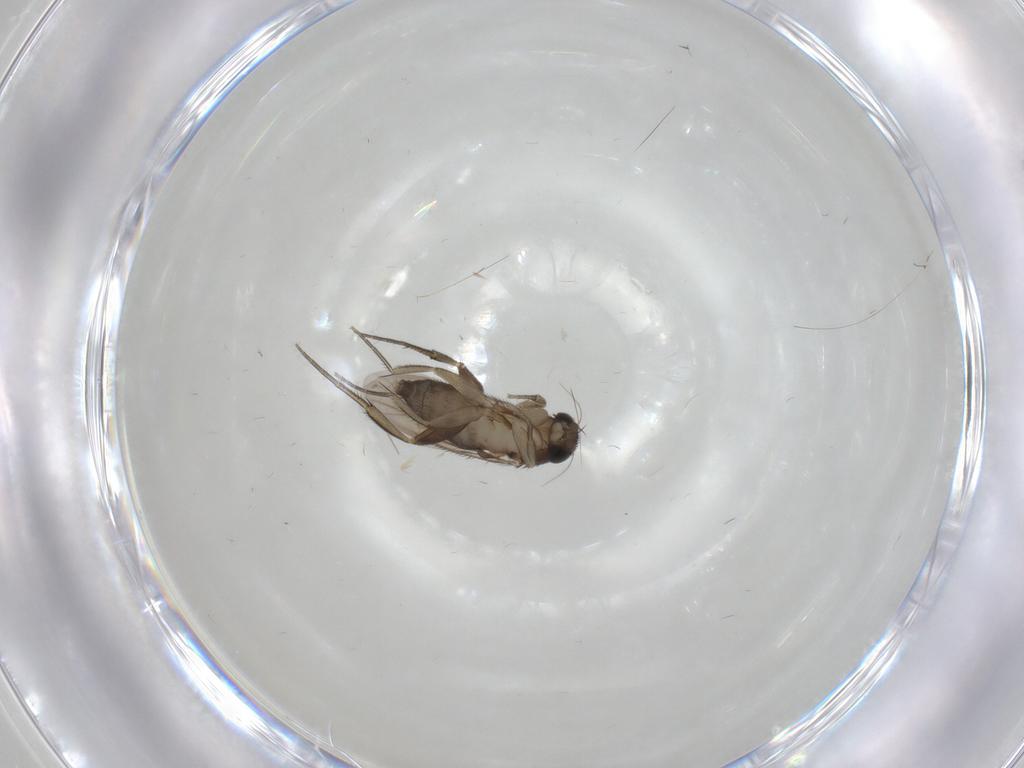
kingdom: Animalia
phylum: Arthropoda
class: Insecta
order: Diptera
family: Phoridae
